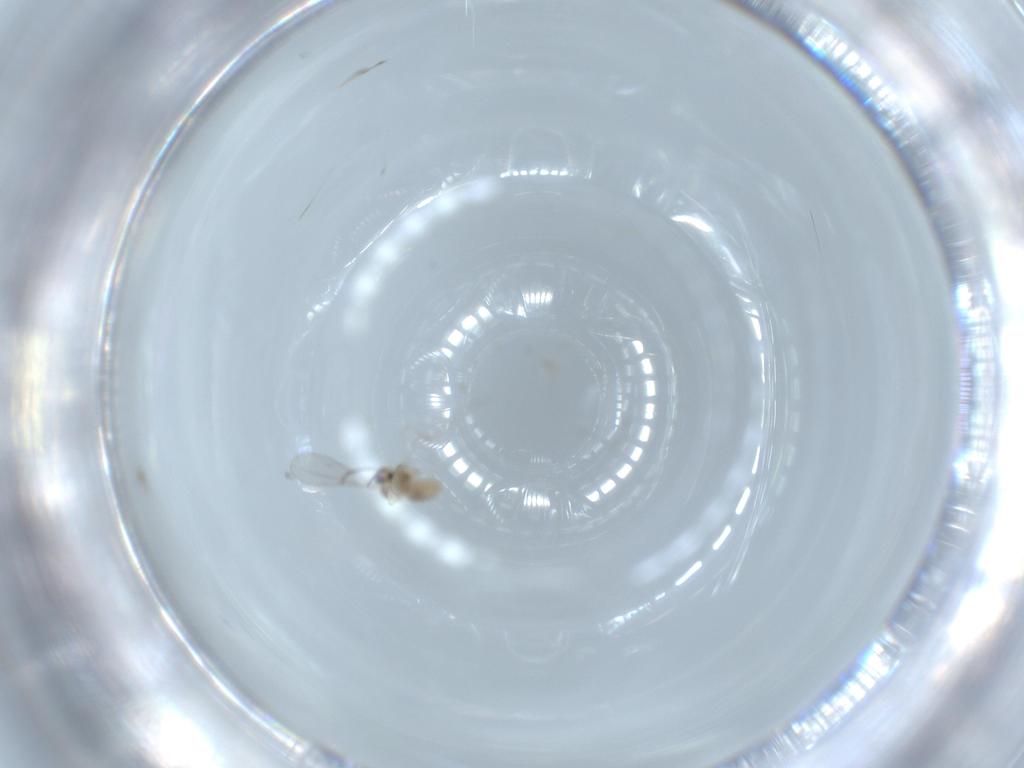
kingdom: Animalia
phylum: Arthropoda
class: Insecta
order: Diptera
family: Cecidomyiidae
